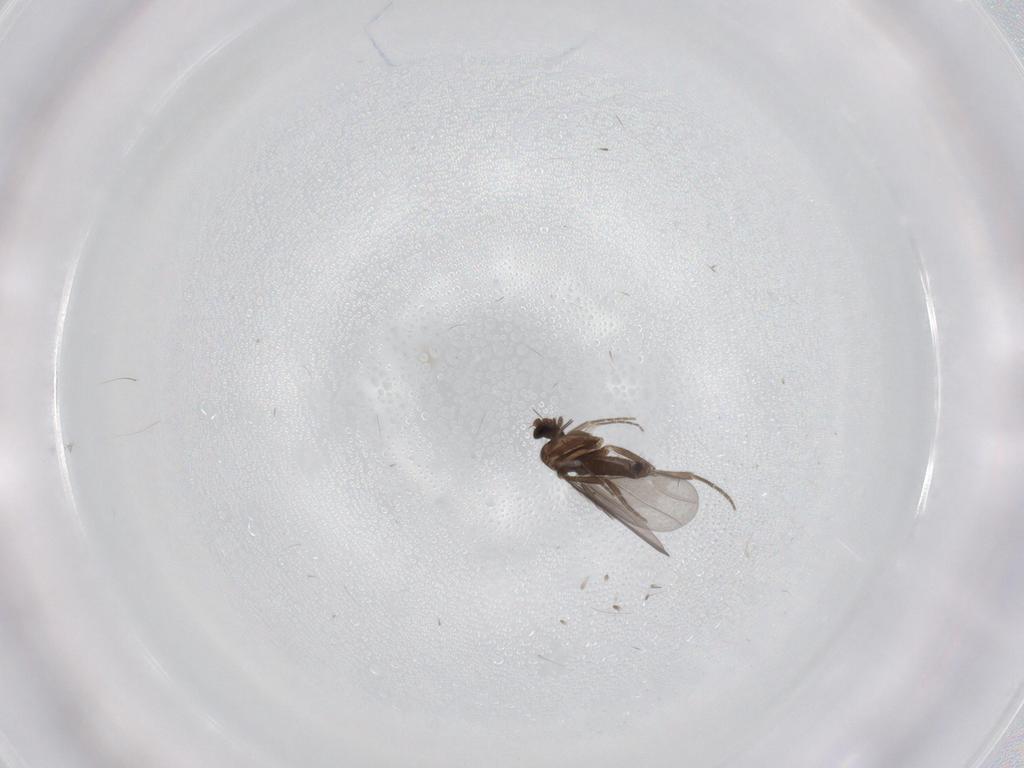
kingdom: Animalia
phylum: Arthropoda
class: Insecta
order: Diptera
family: Phoridae
